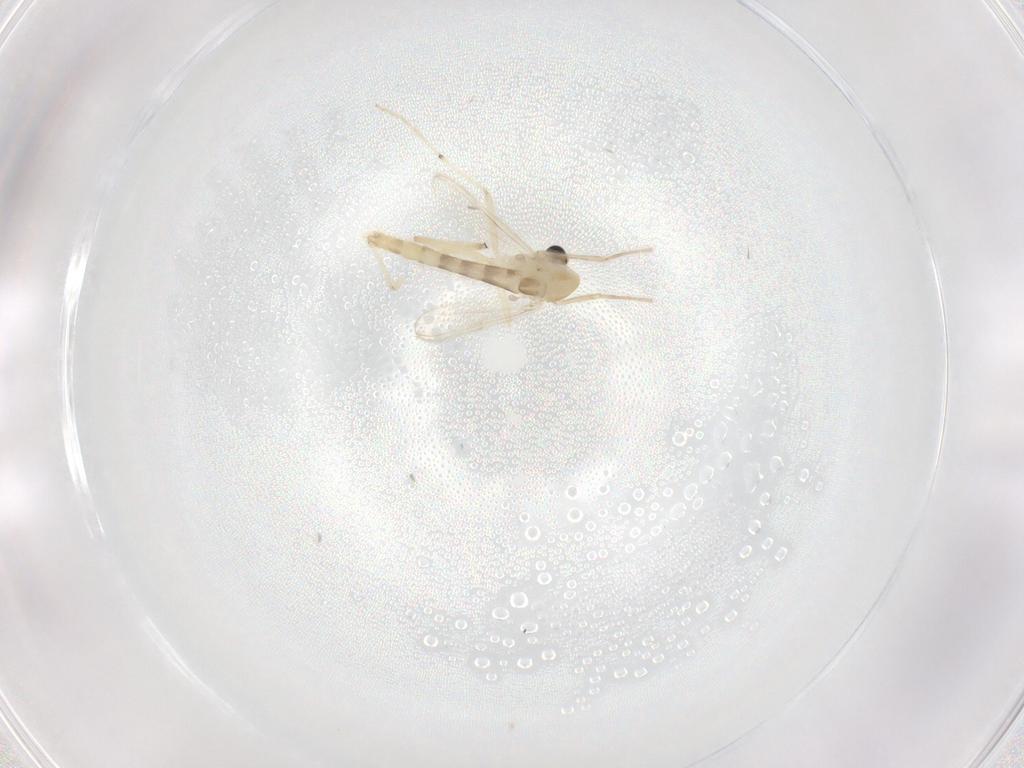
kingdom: Animalia
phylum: Arthropoda
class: Insecta
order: Diptera
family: Chironomidae
